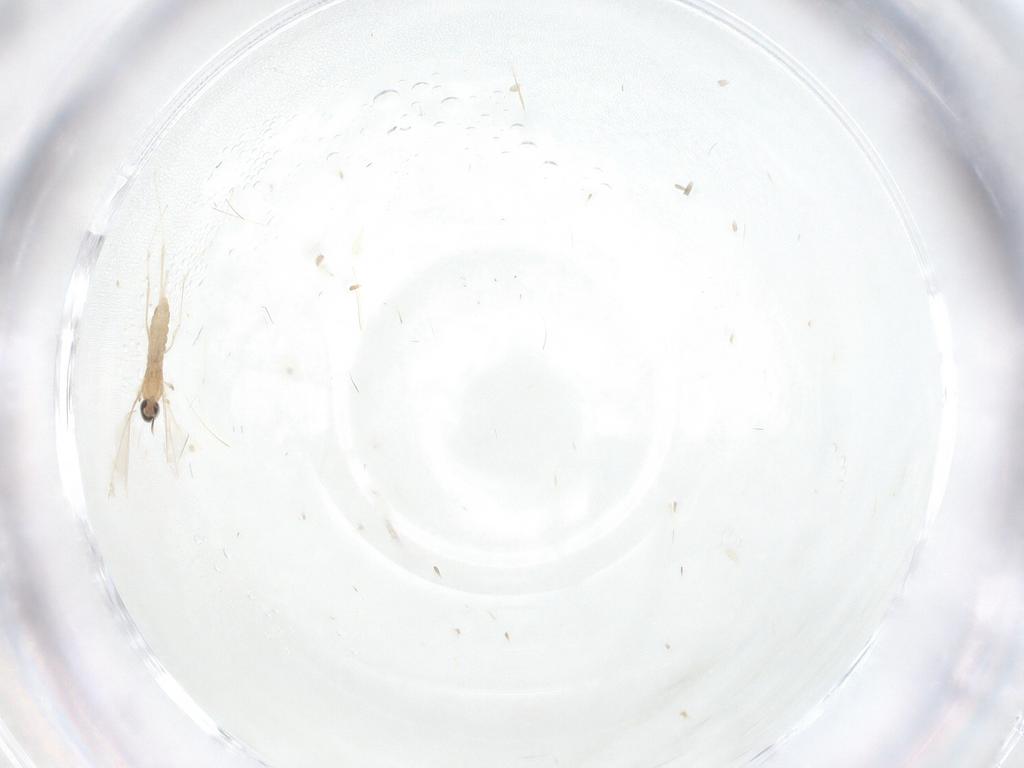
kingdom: Animalia
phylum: Arthropoda
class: Insecta
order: Diptera
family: Cecidomyiidae
